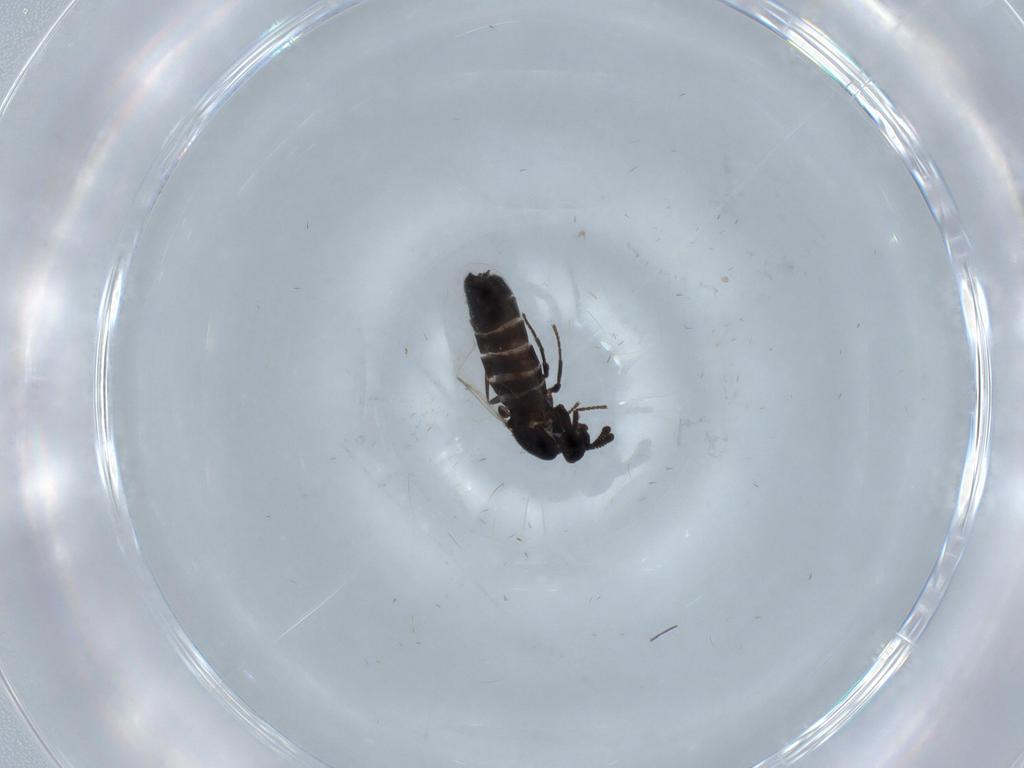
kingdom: Animalia
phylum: Arthropoda
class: Insecta
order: Diptera
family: Scatopsidae
